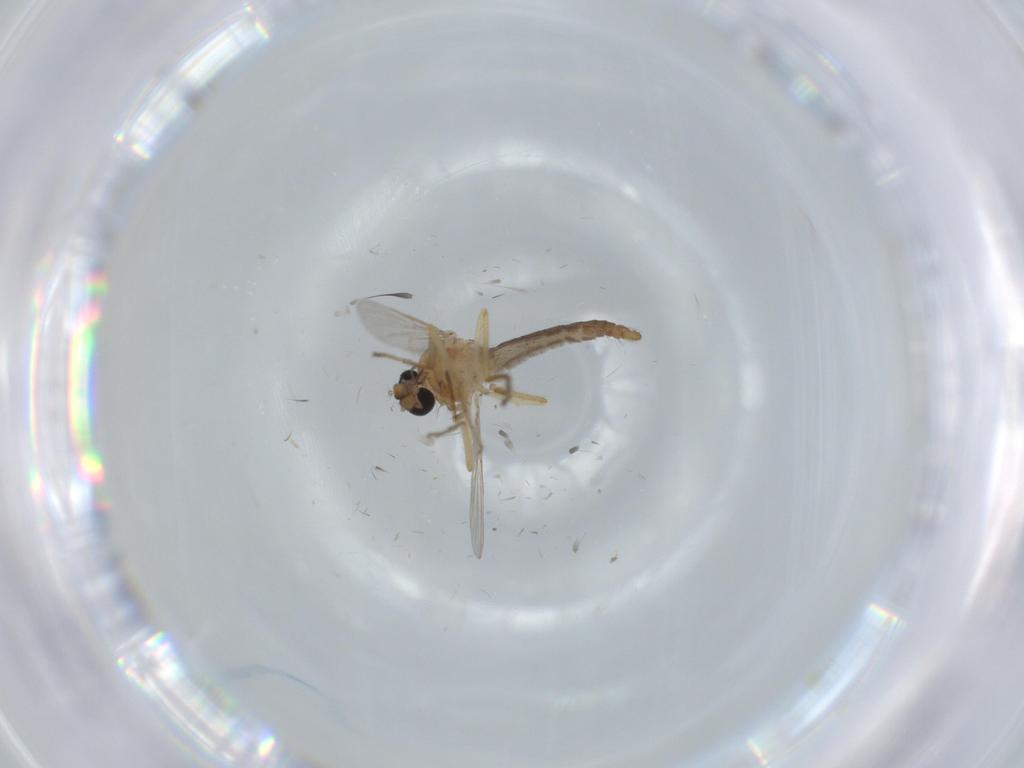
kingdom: Animalia
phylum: Arthropoda
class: Insecta
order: Diptera
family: Ceratopogonidae
